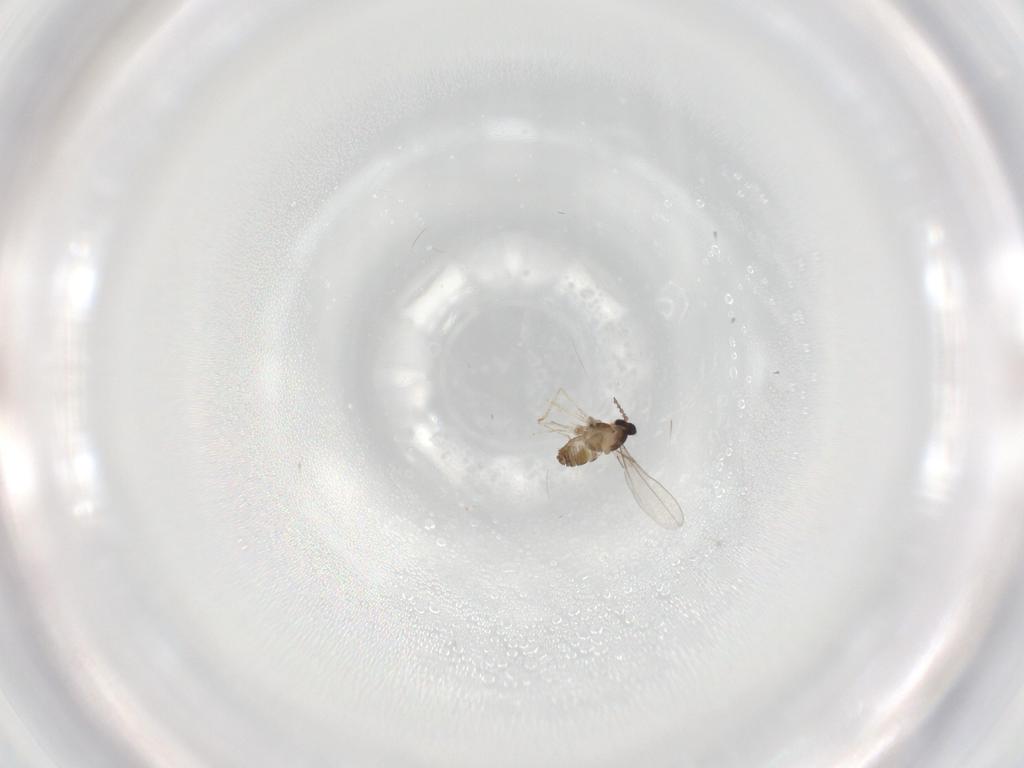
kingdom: Animalia
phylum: Arthropoda
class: Insecta
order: Diptera
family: Cecidomyiidae
